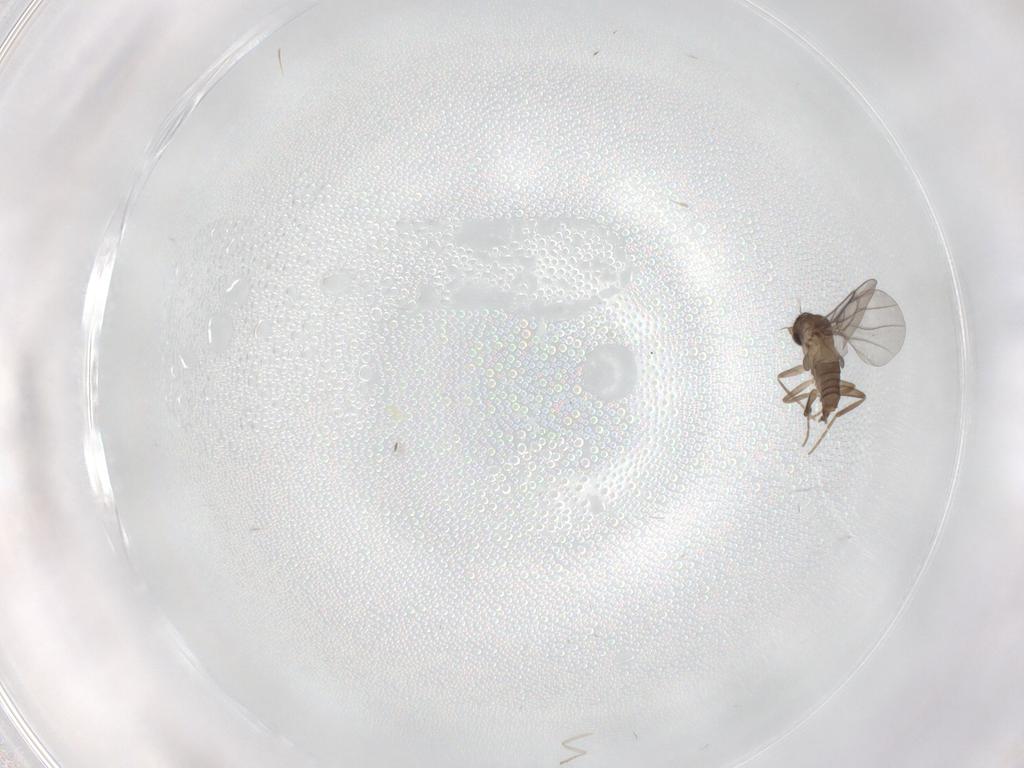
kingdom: Animalia
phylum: Arthropoda
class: Insecta
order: Diptera
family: Cecidomyiidae
